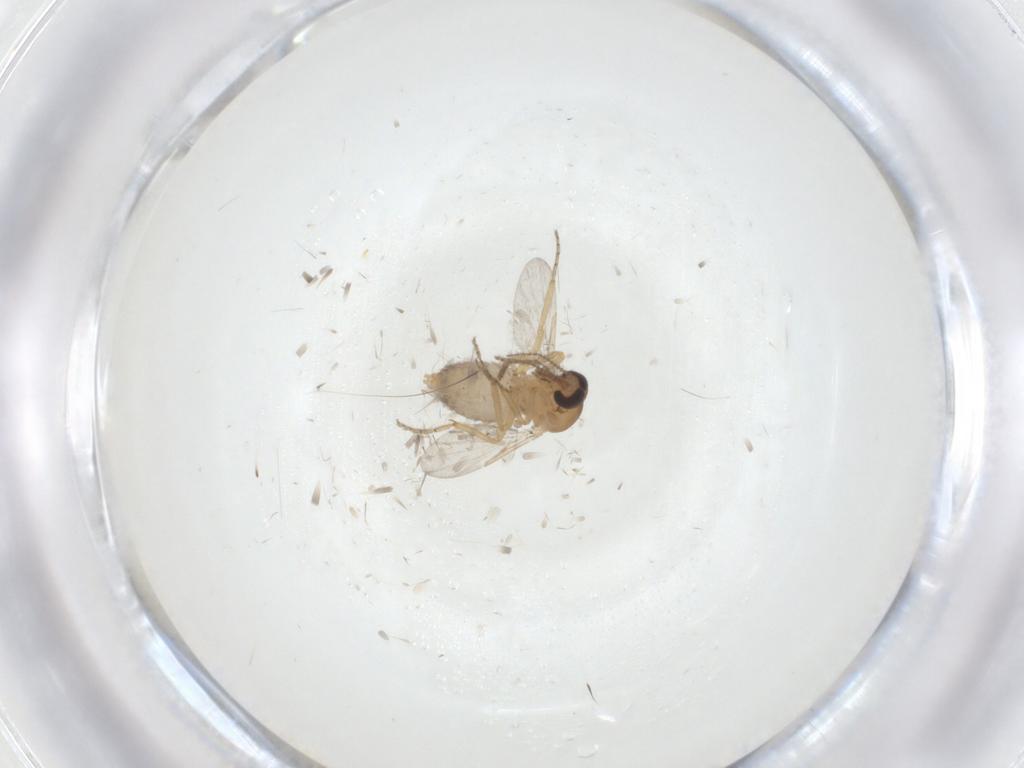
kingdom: Animalia
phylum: Arthropoda
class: Insecta
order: Diptera
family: Ceratopogonidae
